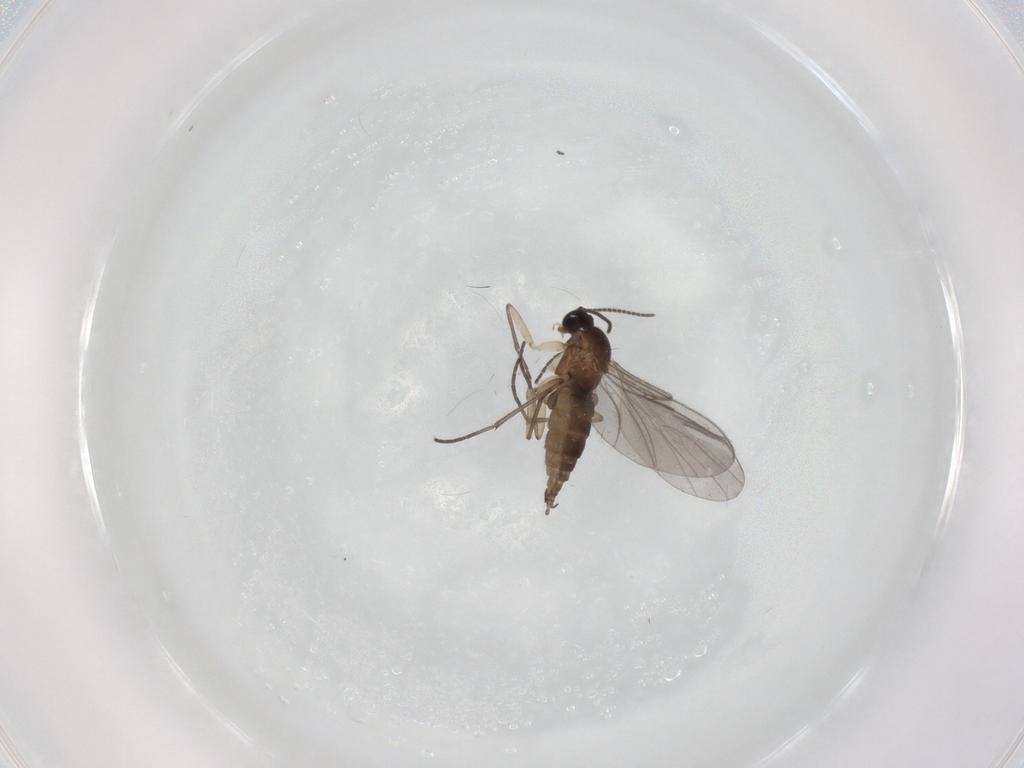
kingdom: Animalia
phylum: Arthropoda
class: Insecta
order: Diptera
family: Sciaridae
